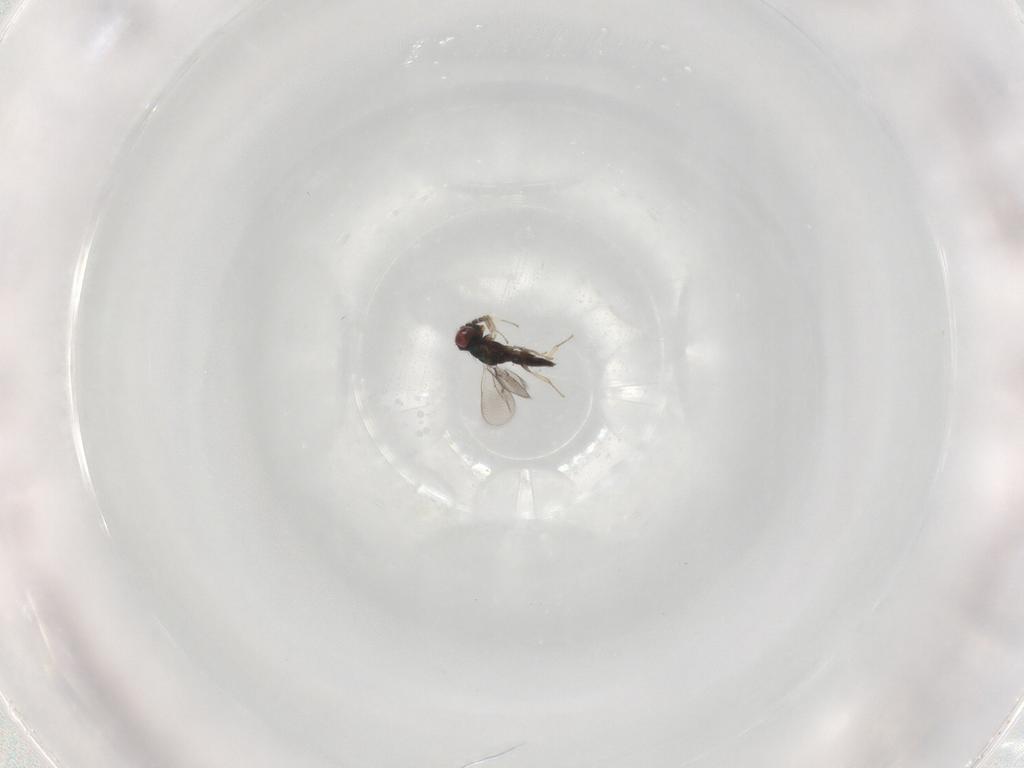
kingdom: Animalia
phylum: Arthropoda
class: Insecta
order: Hymenoptera
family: Eulophidae
